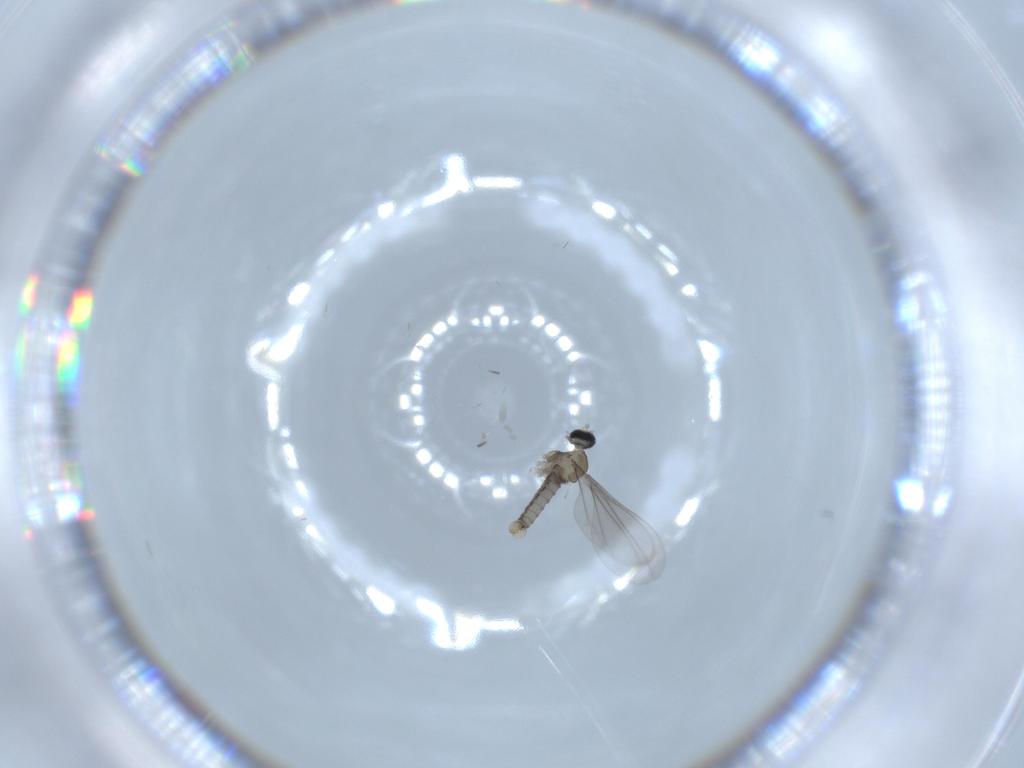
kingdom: Animalia
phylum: Arthropoda
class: Insecta
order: Diptera
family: Cecidomyiidae
